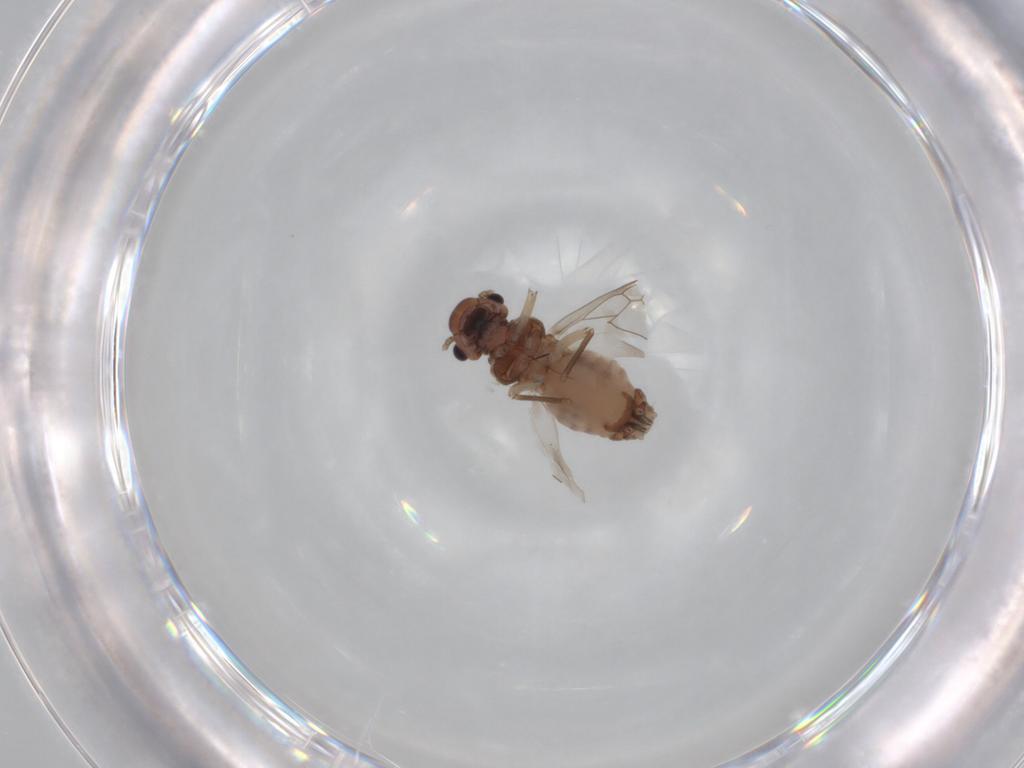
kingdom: Animalia
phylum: Arthropoda
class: Insecta
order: Psocodea
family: Peripsocidae
